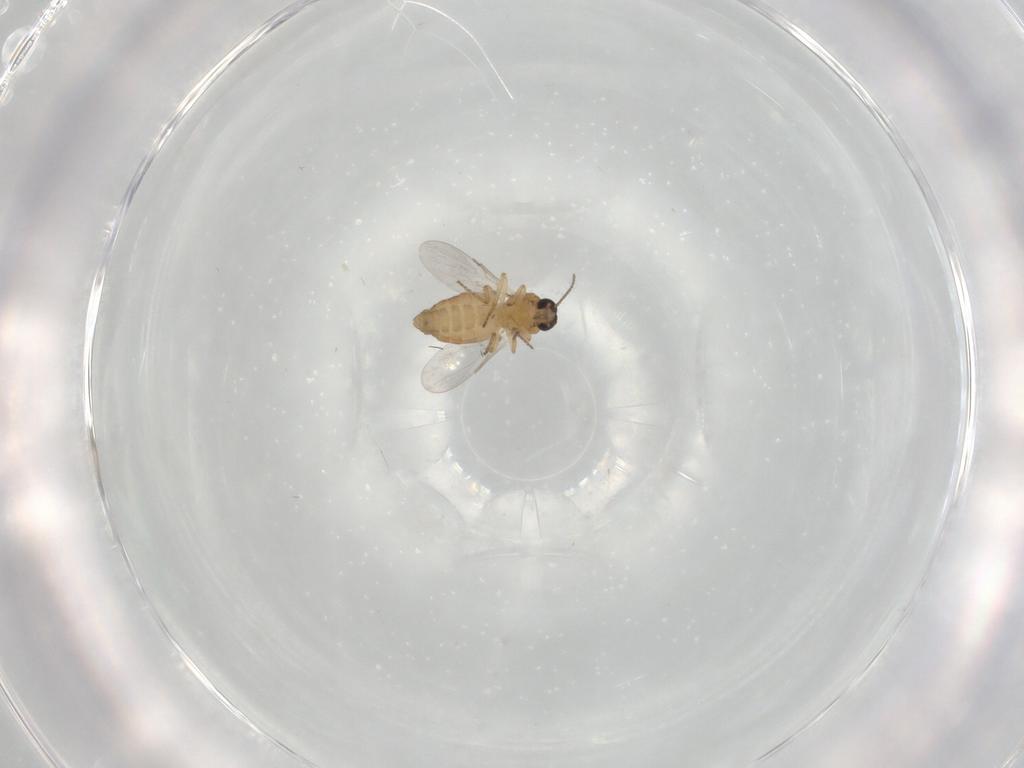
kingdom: Animalia
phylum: Arthropoda
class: Insecta
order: Diptera
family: Ceratopogonidae
